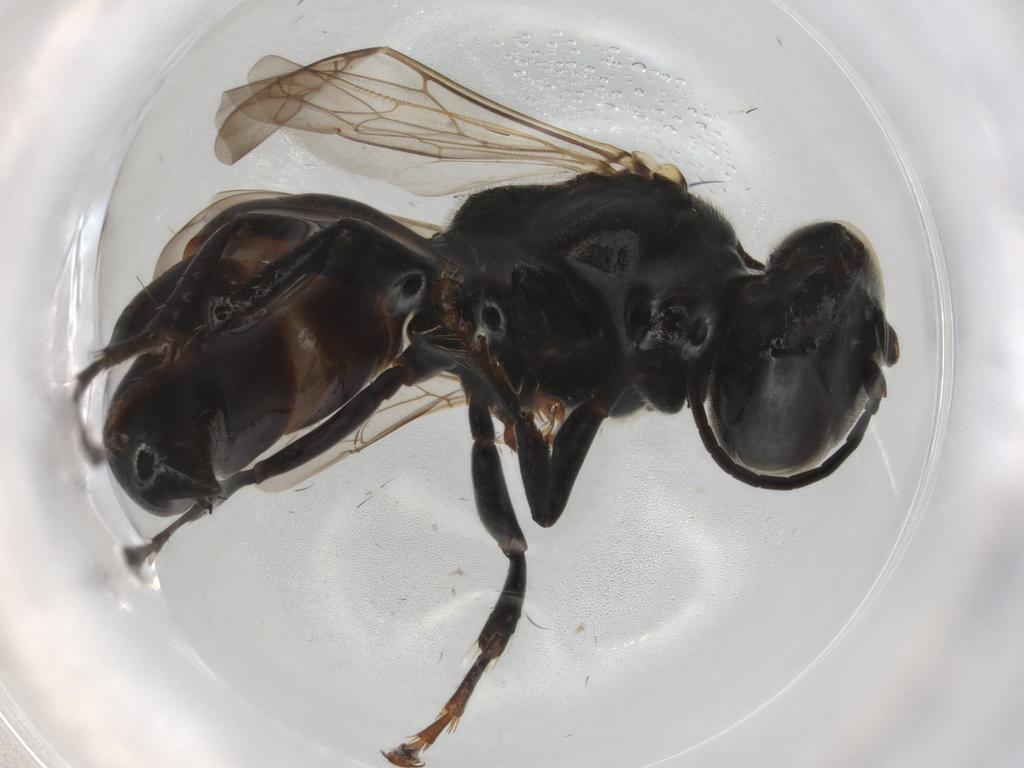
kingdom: Animalia
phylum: Arthropoda
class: Insecta
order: Hymenoptera
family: Scelionidae
